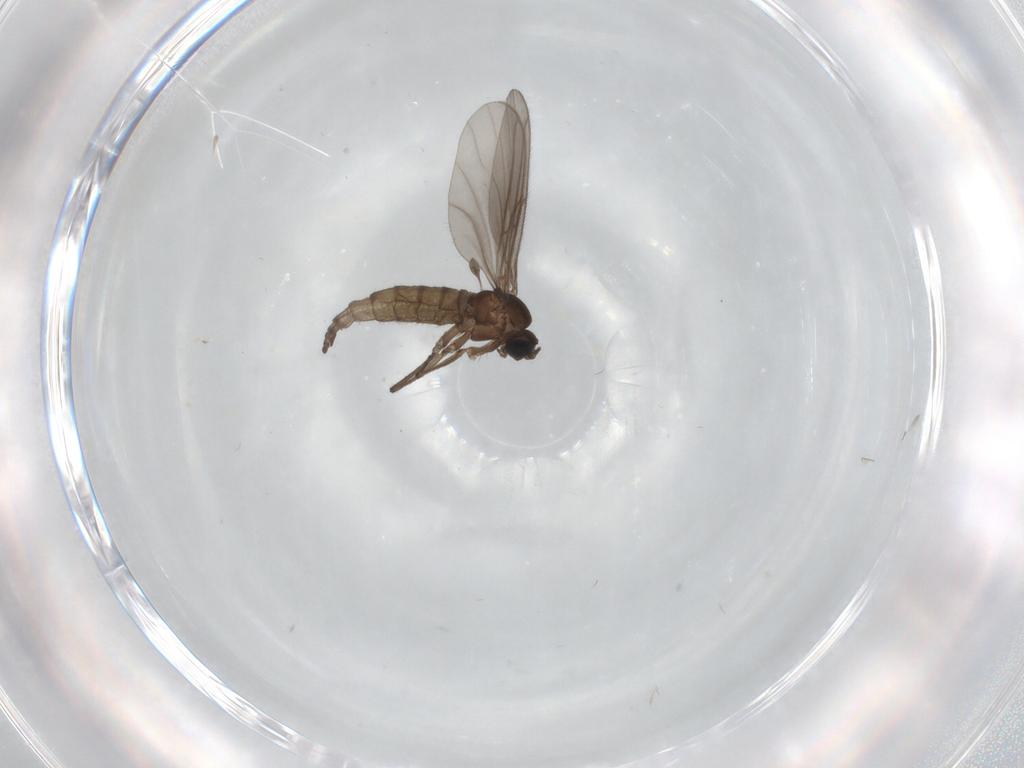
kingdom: Animalia
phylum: Arthropoda
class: Insecta
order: Diptera
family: Sciaridae
